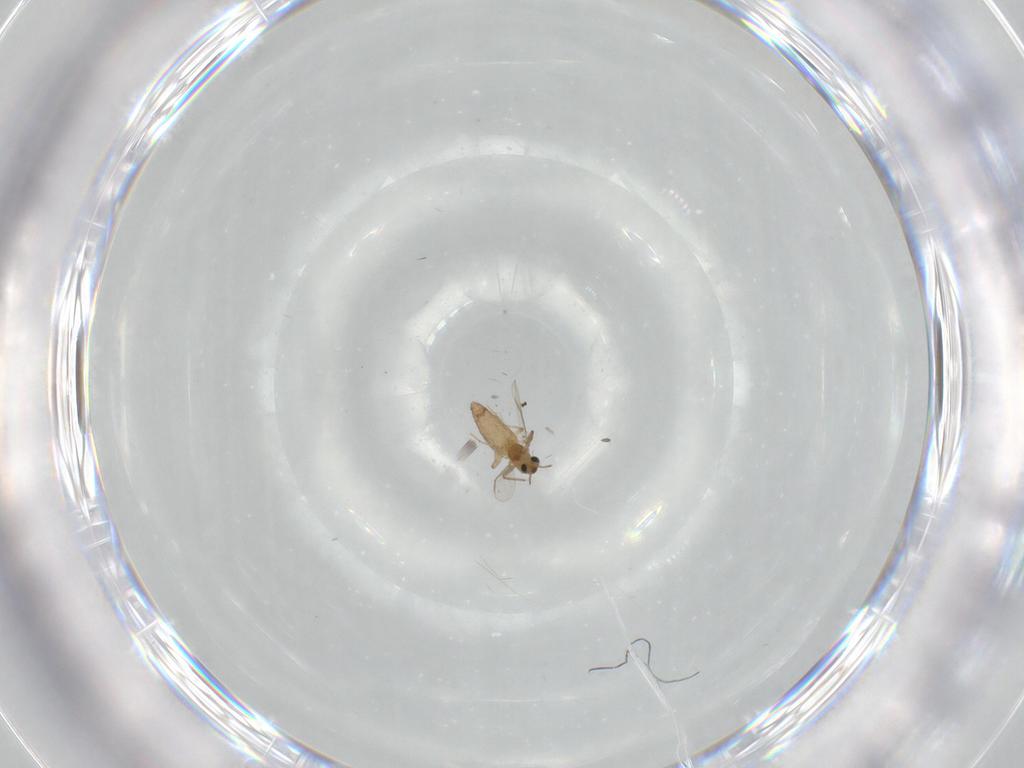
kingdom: Animalia
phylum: Arthropoda
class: Insecta
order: Diptera
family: Chironomidae
